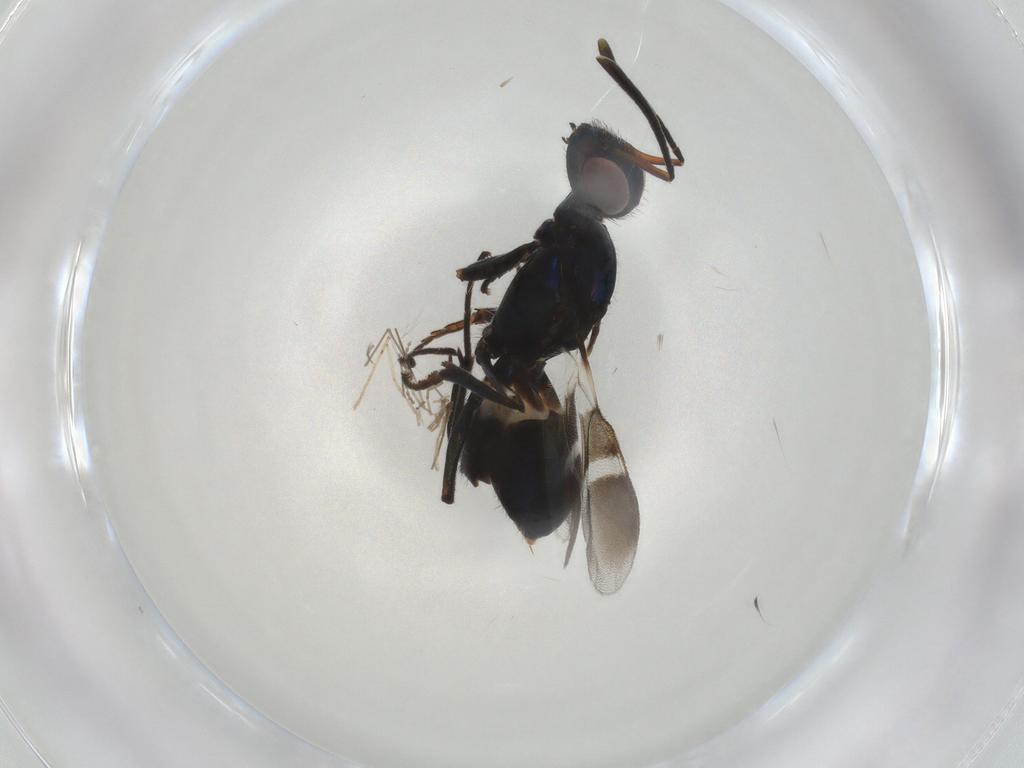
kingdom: Animalia
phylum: Arthropoda
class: Insecta
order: Hymenoptera
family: Eupelmidae
